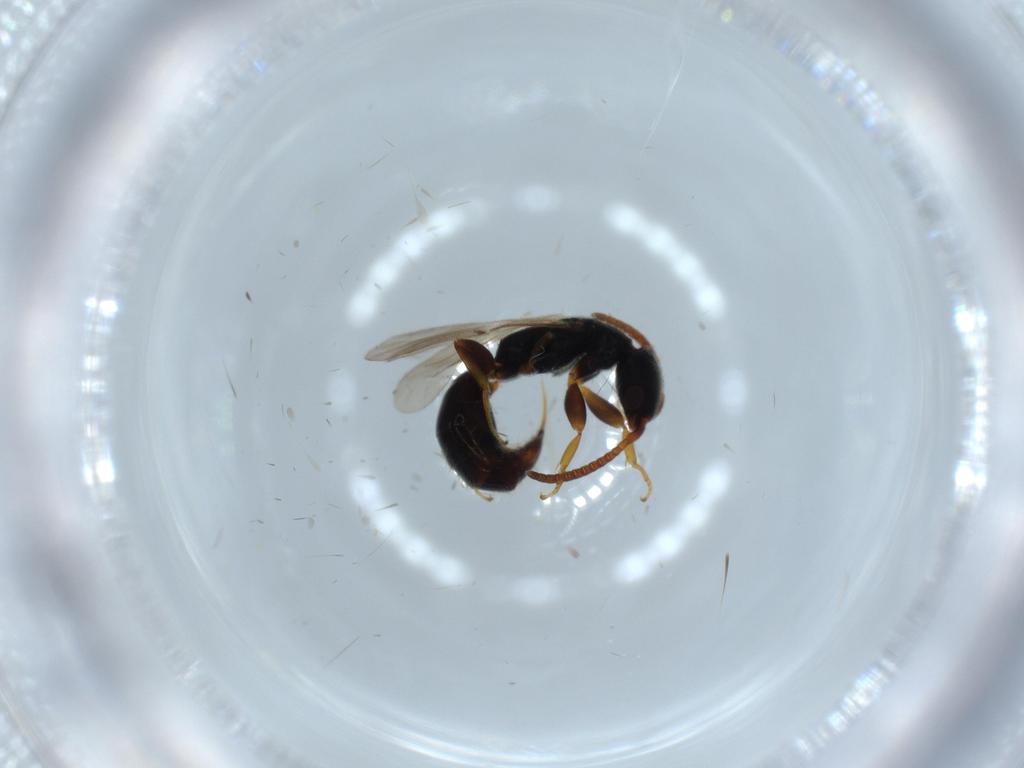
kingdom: Animalia
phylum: Arthropoda
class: Insecta
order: Hymenoptera
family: Bethylidae
